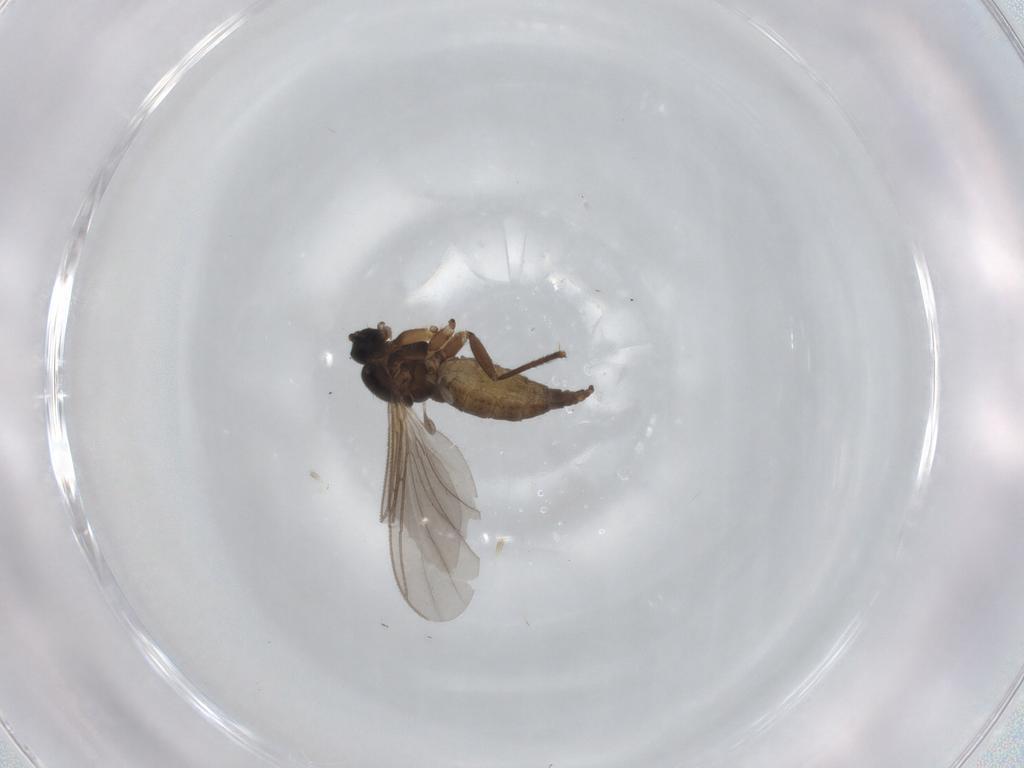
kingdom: Animalia
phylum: Arthropoda
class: Insecta
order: Diptera
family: Sciaridae
